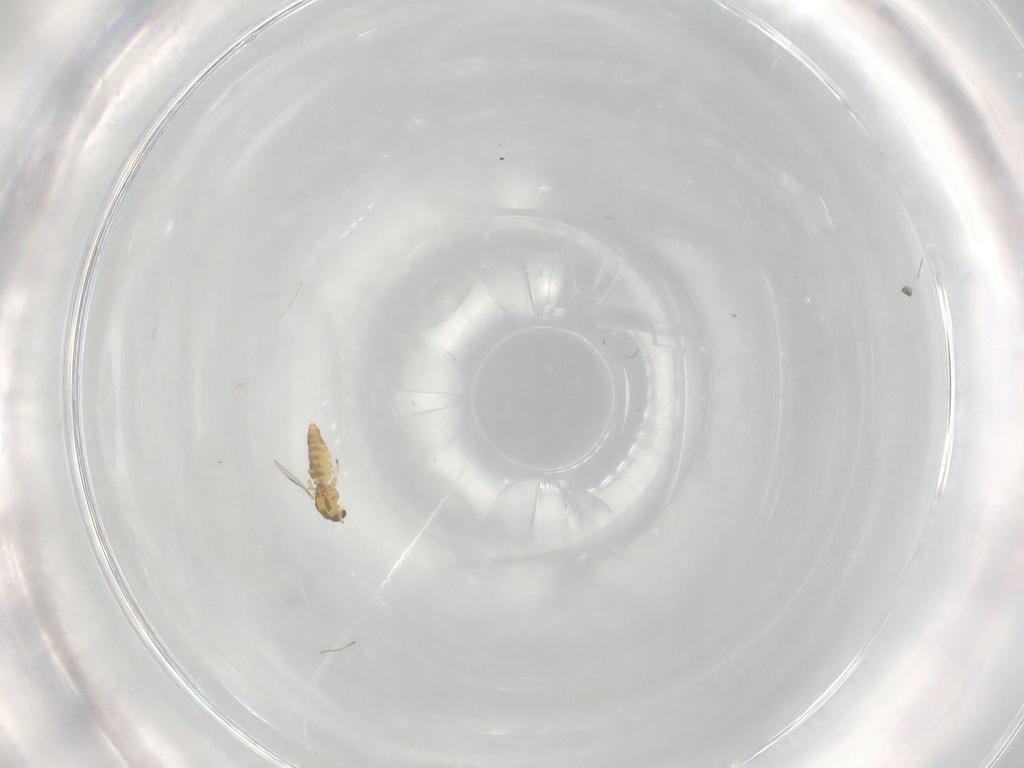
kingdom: Animalia
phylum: Arthropoda
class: Insecta
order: Diptera
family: Chironomidae
